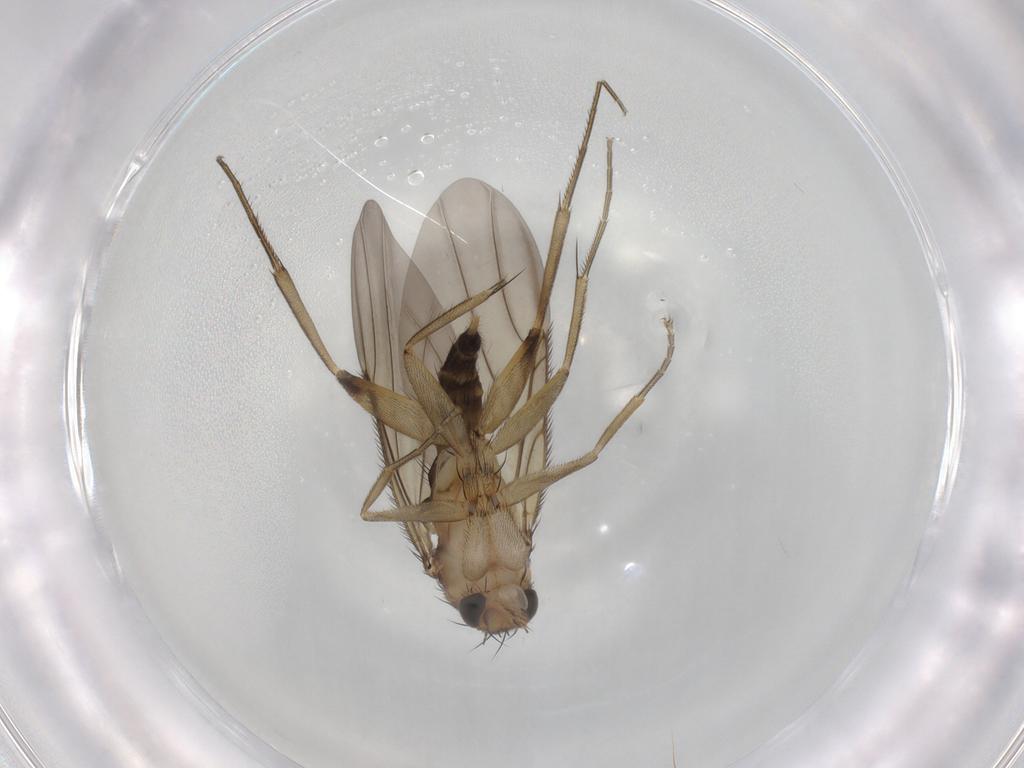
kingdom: Animalia
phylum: Arthropoda
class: Insecta
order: Diptera
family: Phoridae
